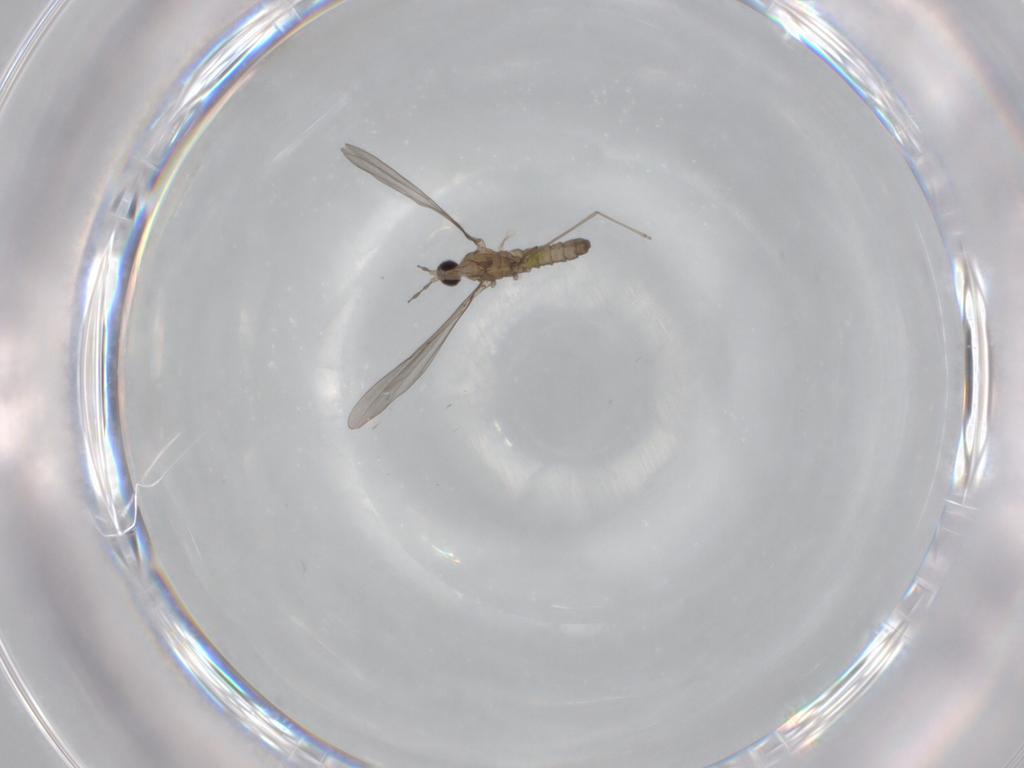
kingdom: Animalia
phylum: Arthropoda
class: Insecta
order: Diptera
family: Cecidomyiidae
